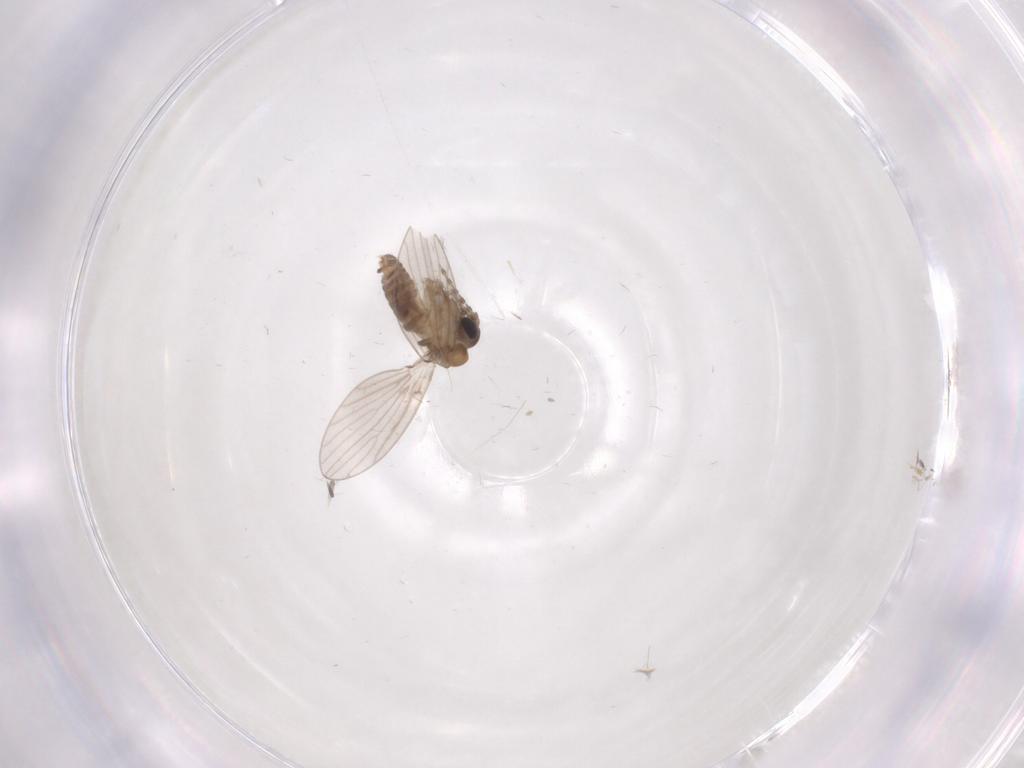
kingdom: Animalia
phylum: Arthropoda
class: Insecta
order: Diptera
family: Psychodidae
